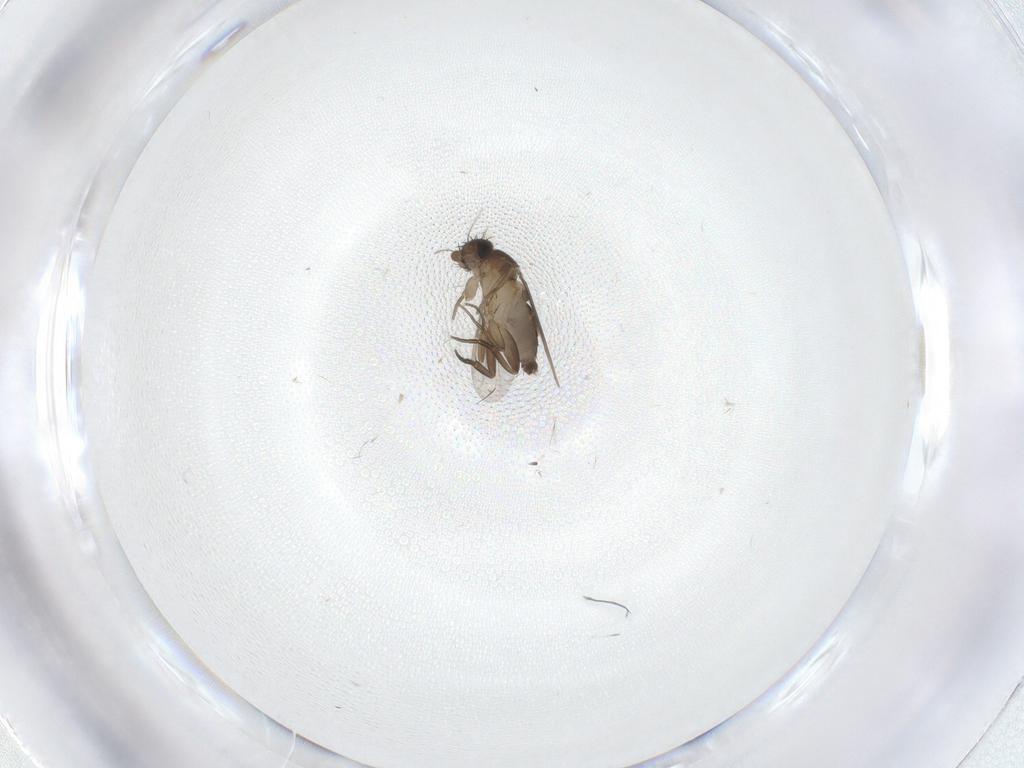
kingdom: Animalia
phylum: Arthropoda
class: Insecta
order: Diptera
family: Phoridae
